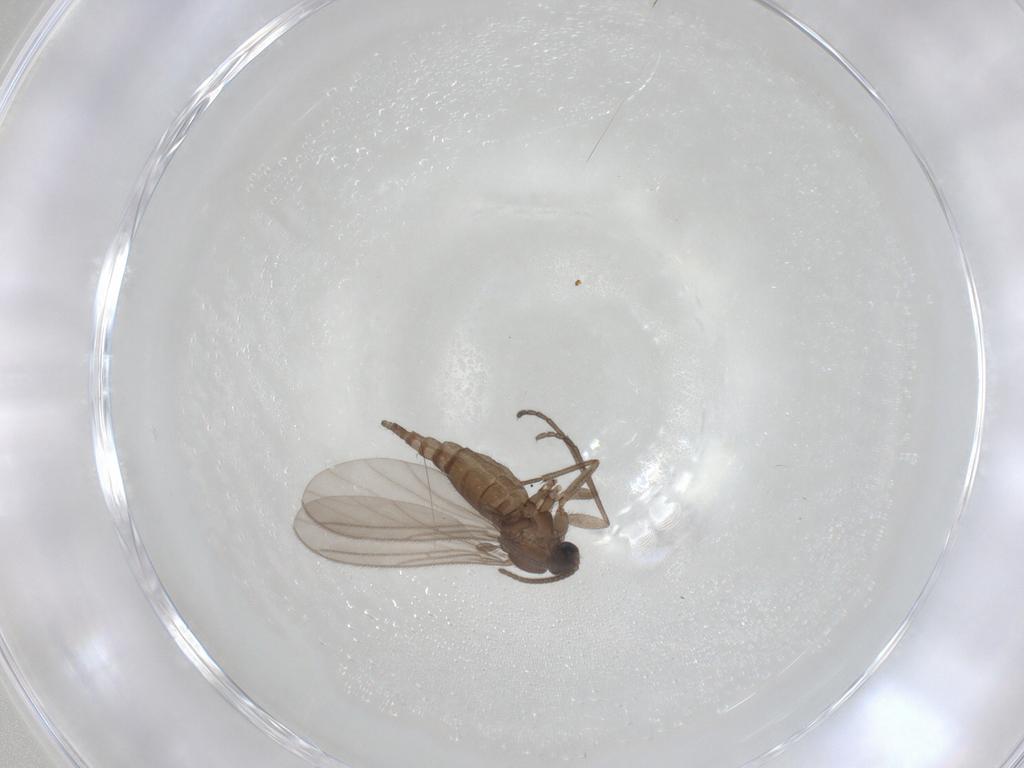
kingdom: Animalia
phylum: Arthropoda
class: Insecta
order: Diptera
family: Sciaridae
